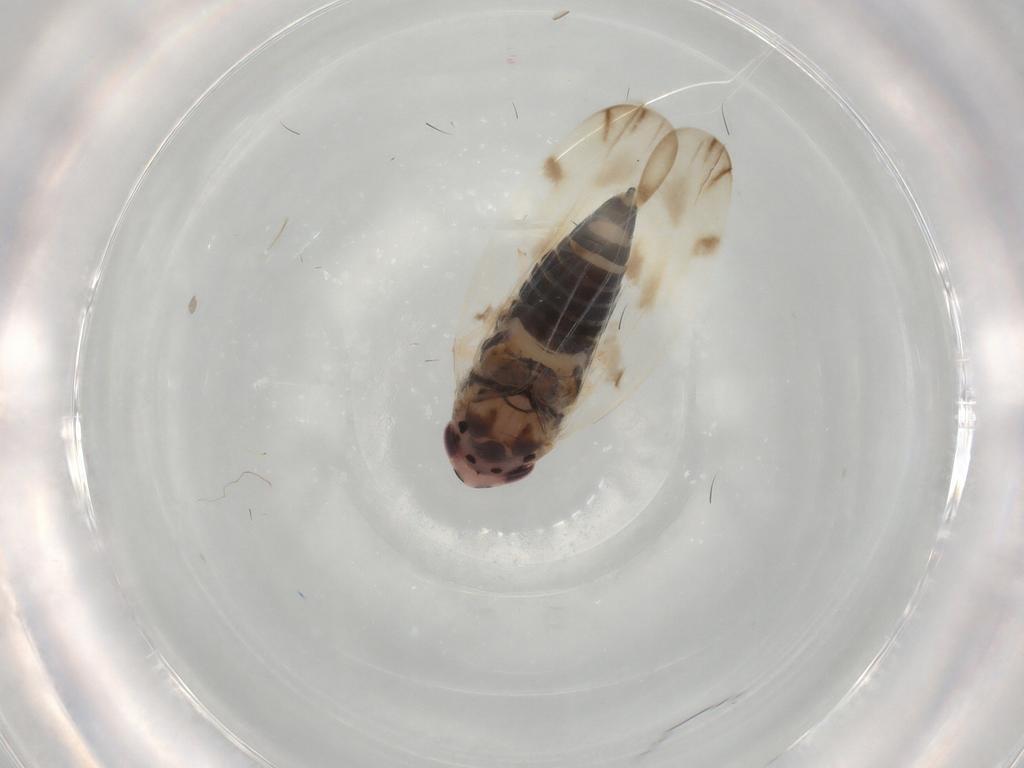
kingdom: Animalia
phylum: Arthropoda
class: Insecta
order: Hemiptera
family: Cicadellidae
